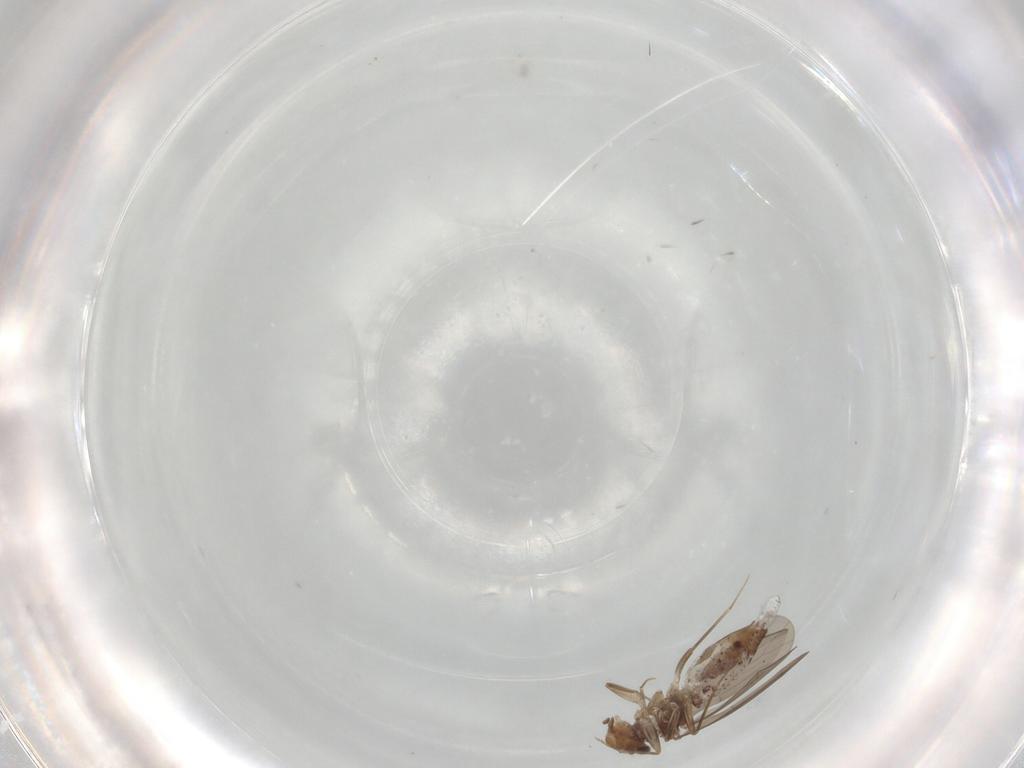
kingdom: Animalia
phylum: Arthropoda
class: Insecta
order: Psocodea
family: Lepidopsocidae
